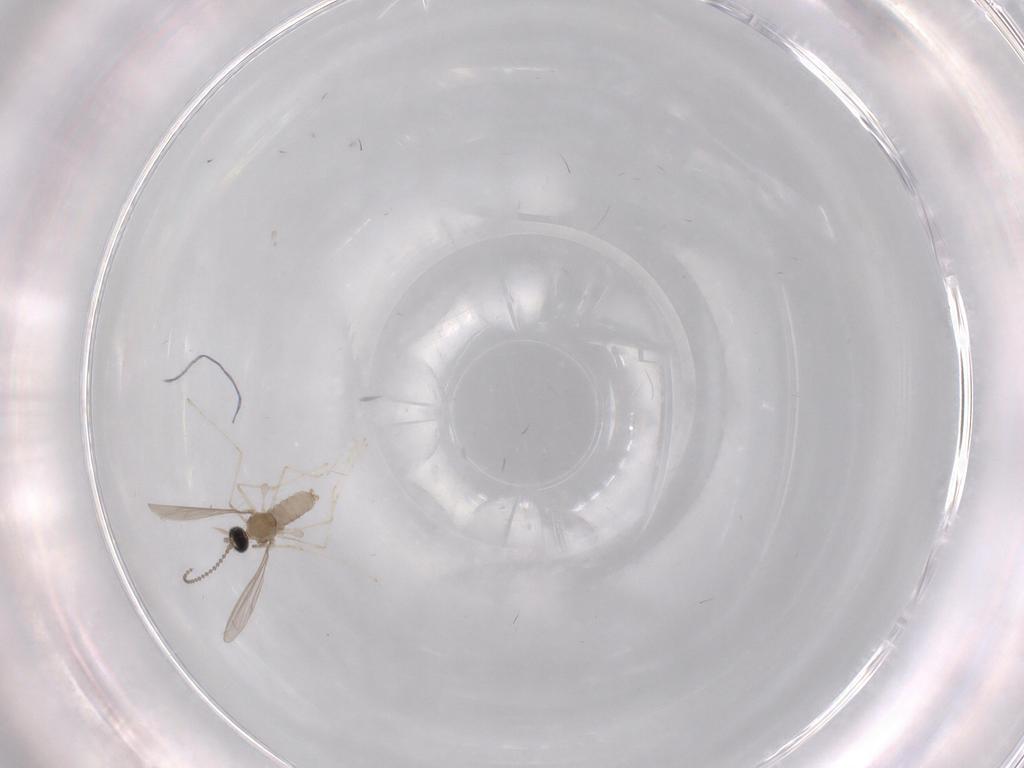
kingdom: Animalia
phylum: Arthropoda
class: Insecta
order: Diptera
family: Cecidomyiidae
